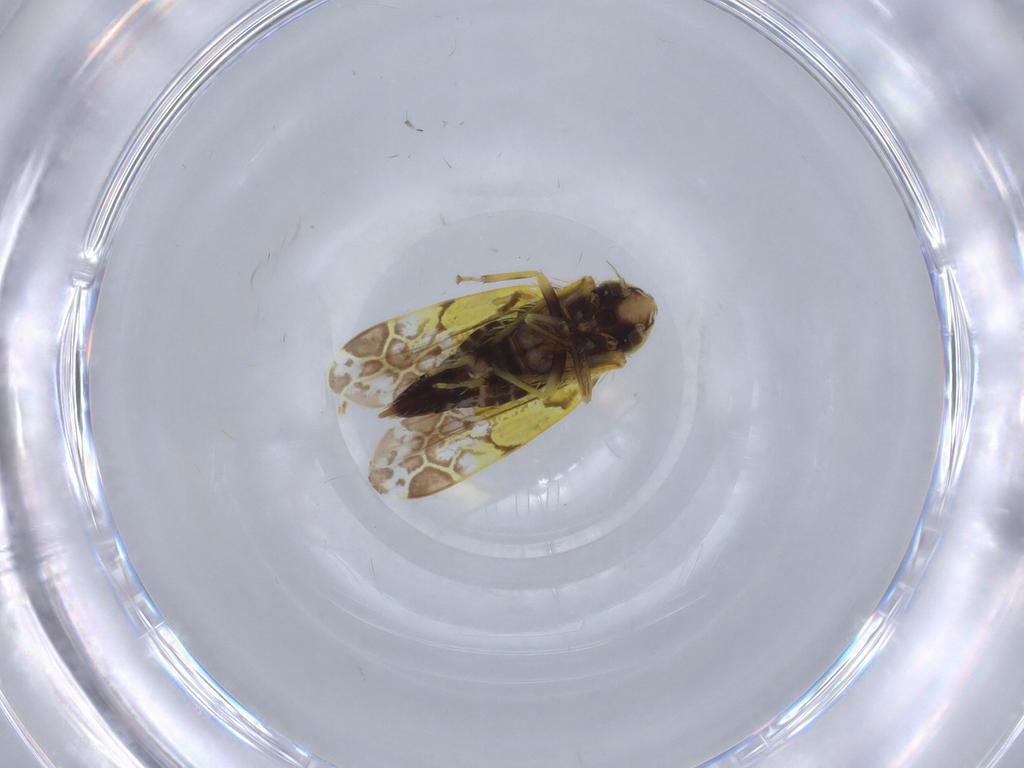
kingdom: Animalia
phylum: Arthropoda
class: Insecta
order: Hemiptera
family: Cicadellidae
